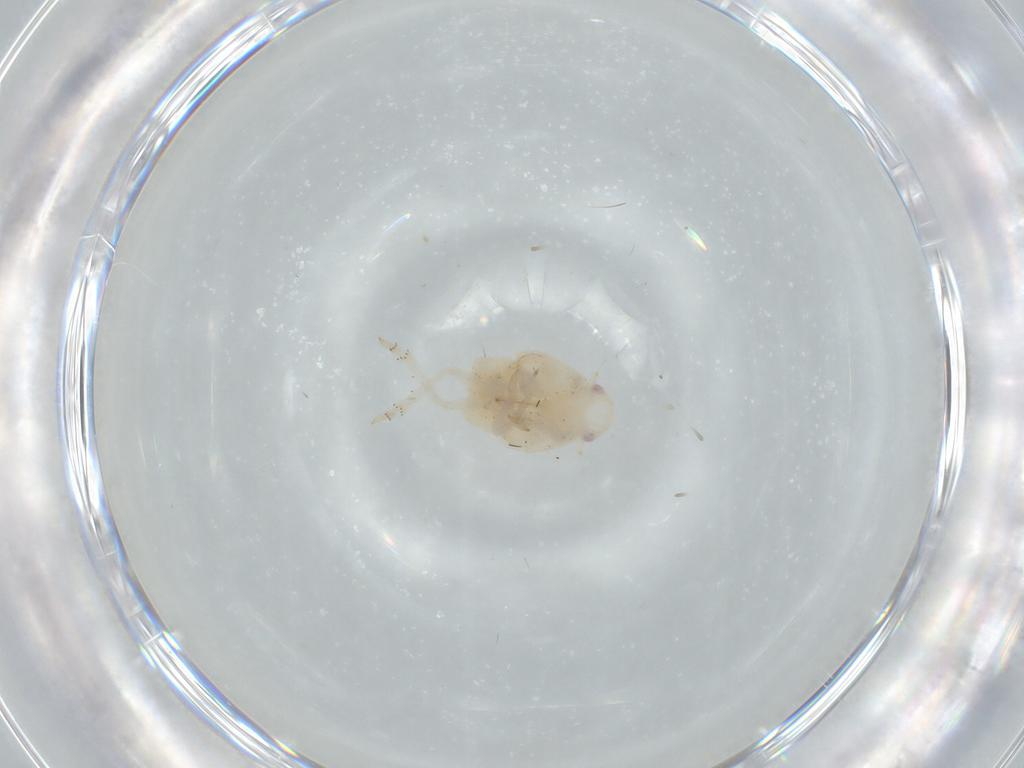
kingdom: Animalia
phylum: Arthropoda
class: Insecta
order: Hemiptera
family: Flatidae
